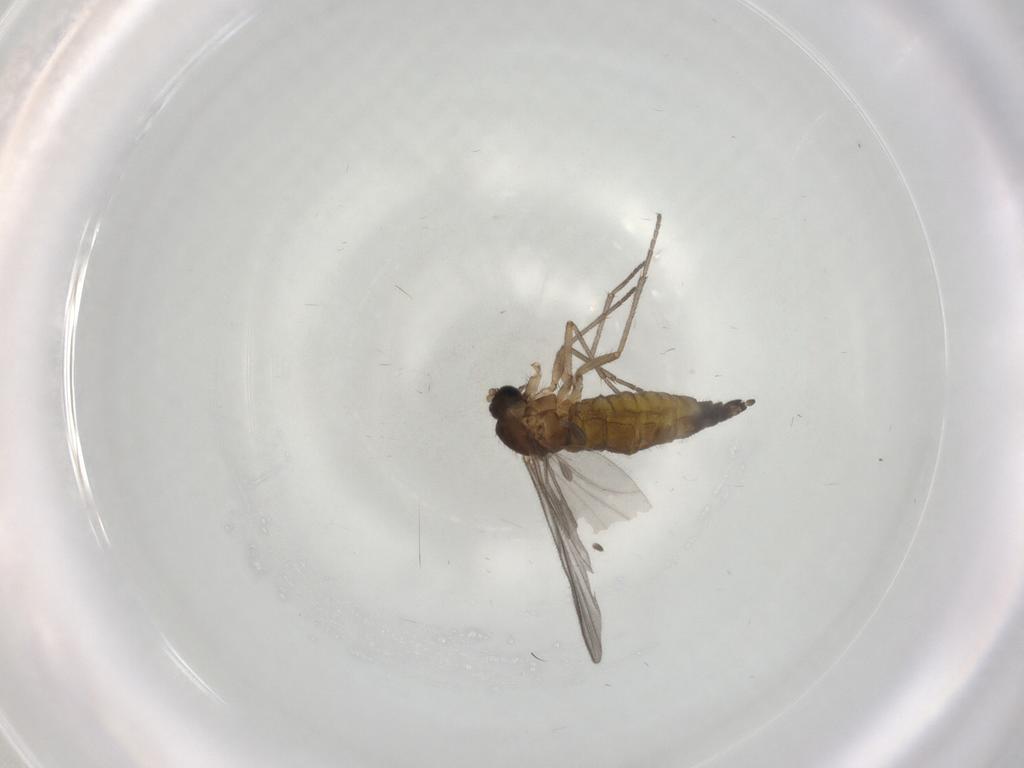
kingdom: Animalia
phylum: Arthropoda
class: Insecta
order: Diptera
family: Sciaridae
